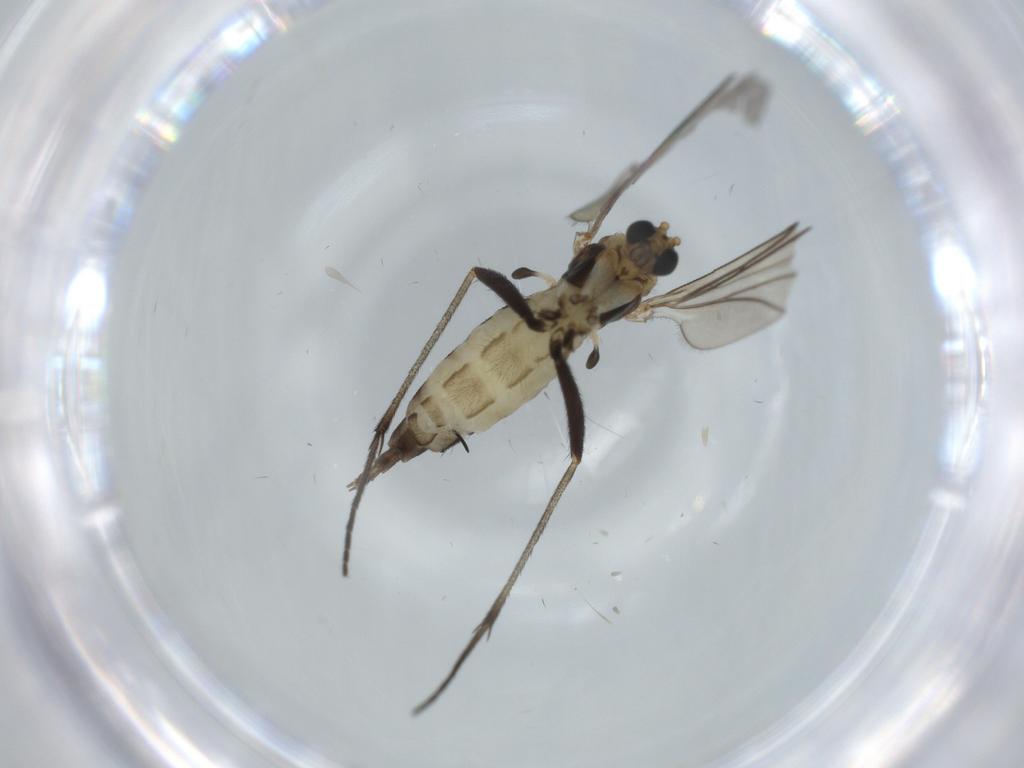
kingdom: Animalia
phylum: Arthropoda
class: Insecta
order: Diptera
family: Sciaridae
